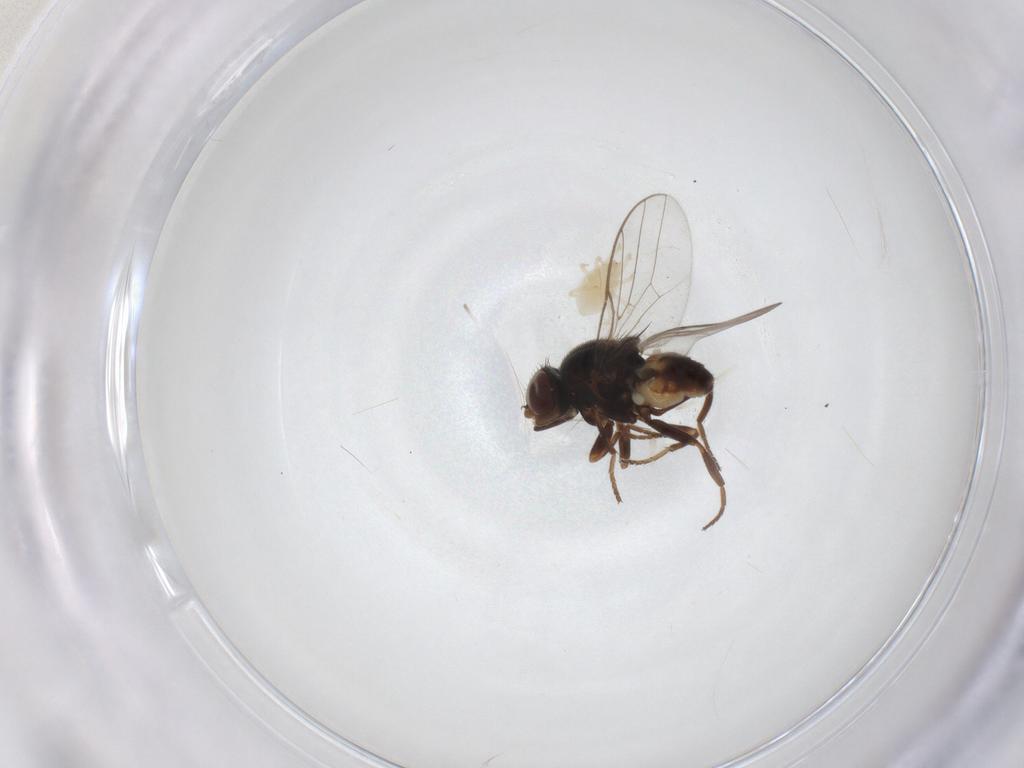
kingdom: Animalia
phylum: Arthropoda
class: Insecta
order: Diptera
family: Chloropidae
